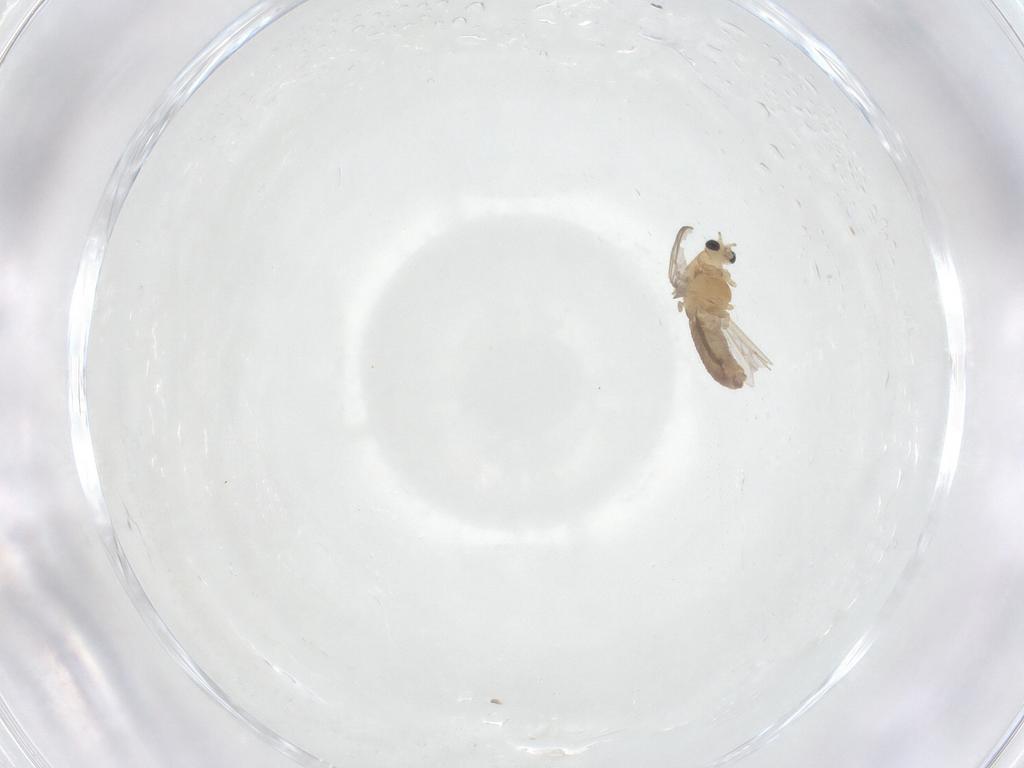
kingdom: Animalia
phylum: Arthropoda
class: Insecta
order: Diptera
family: Chironomidae
